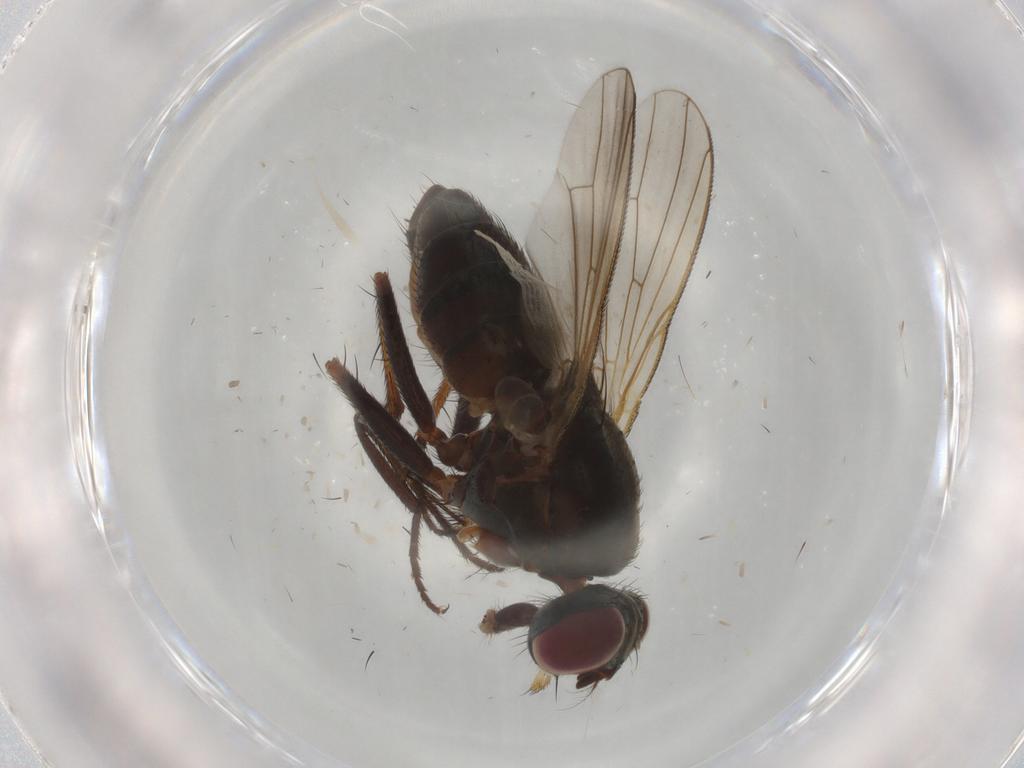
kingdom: Animalia
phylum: Arthropoda
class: Insecta
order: Diptera
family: Muscidae
